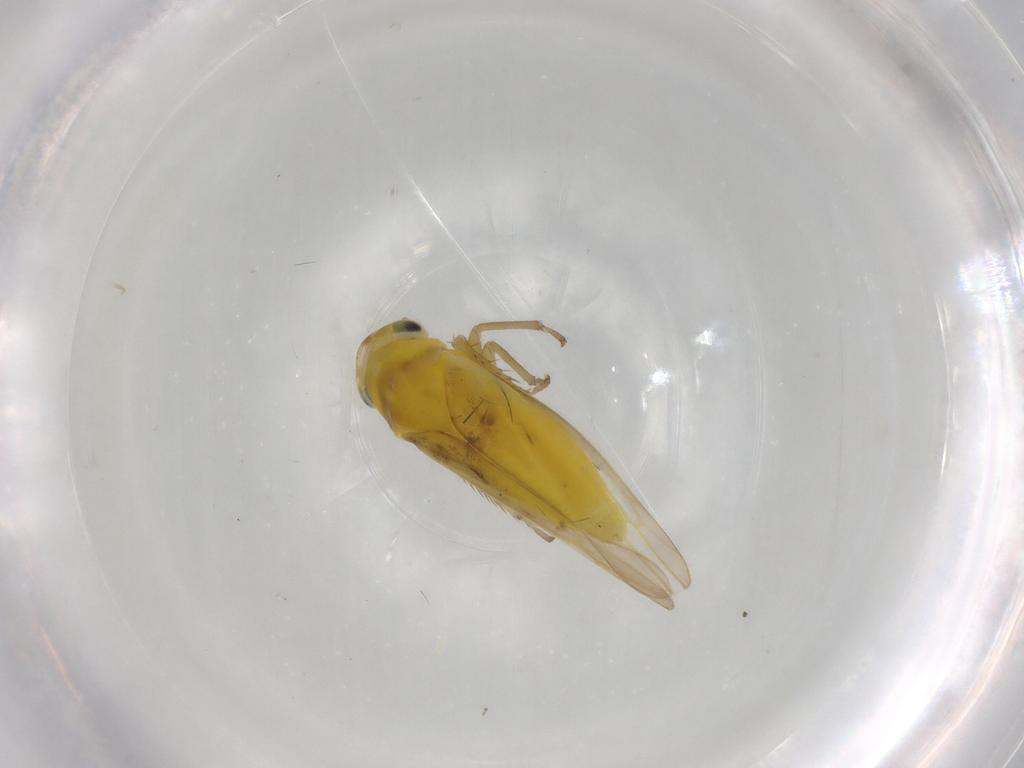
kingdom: Animalia
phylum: Arthropoda
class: Insecta
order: Hemiptera
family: Cicadellidae
